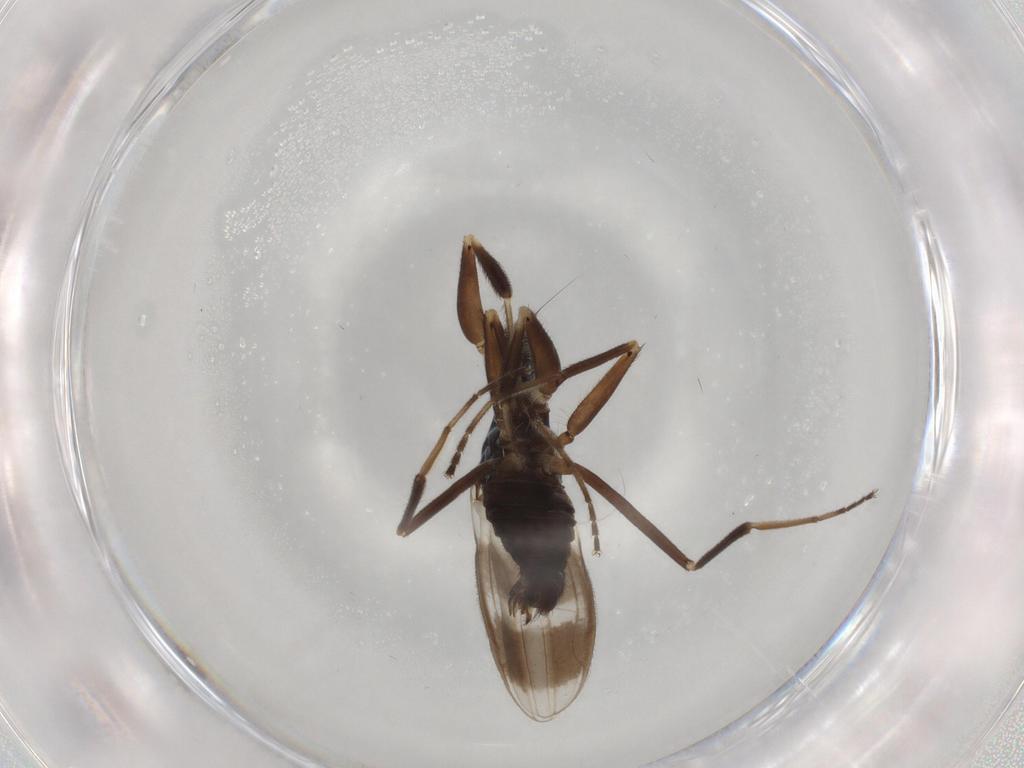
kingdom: Animalia
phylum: Arthropoda
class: Insecta
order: Diptera
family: Hybotidae
